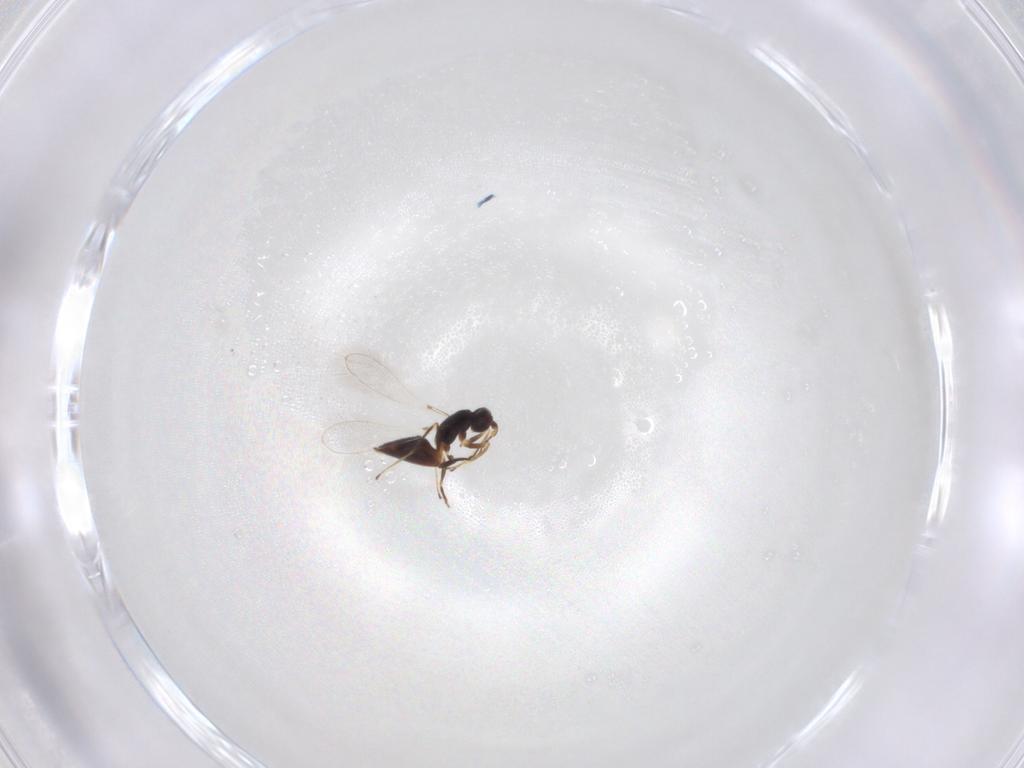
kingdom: Animalia
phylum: Arthropoda
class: Insecta
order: Hymenoptera
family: Mymaridae
